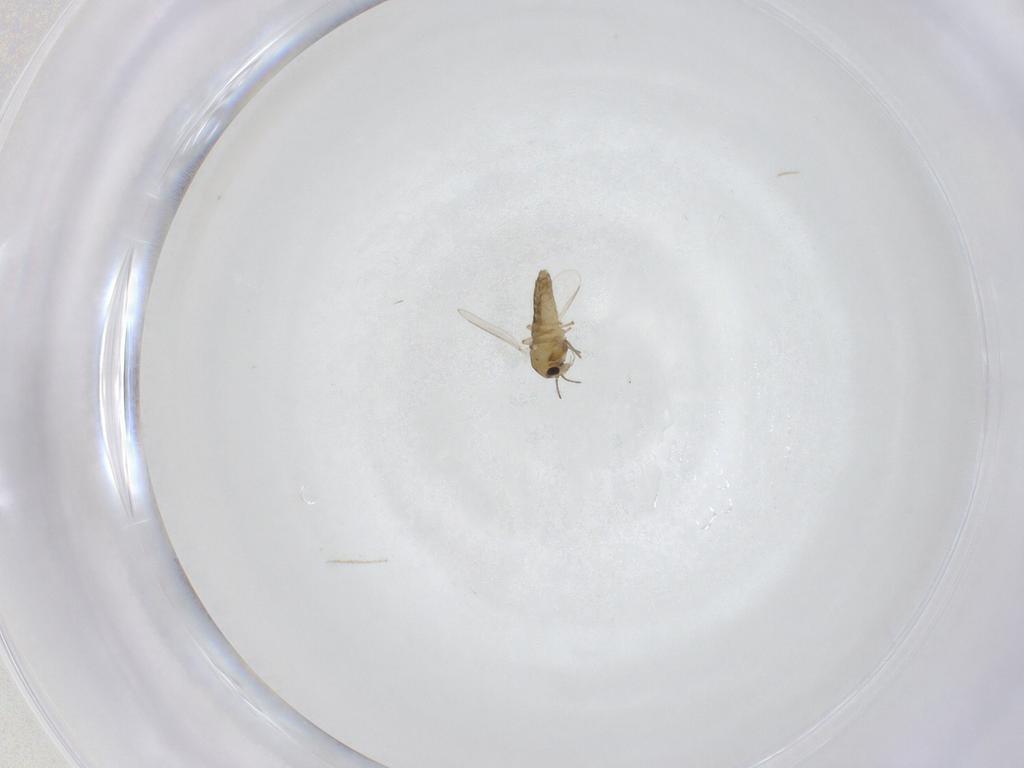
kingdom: Animalia
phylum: Arthropoda
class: Insecta
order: Diptera
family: Chironomidae
